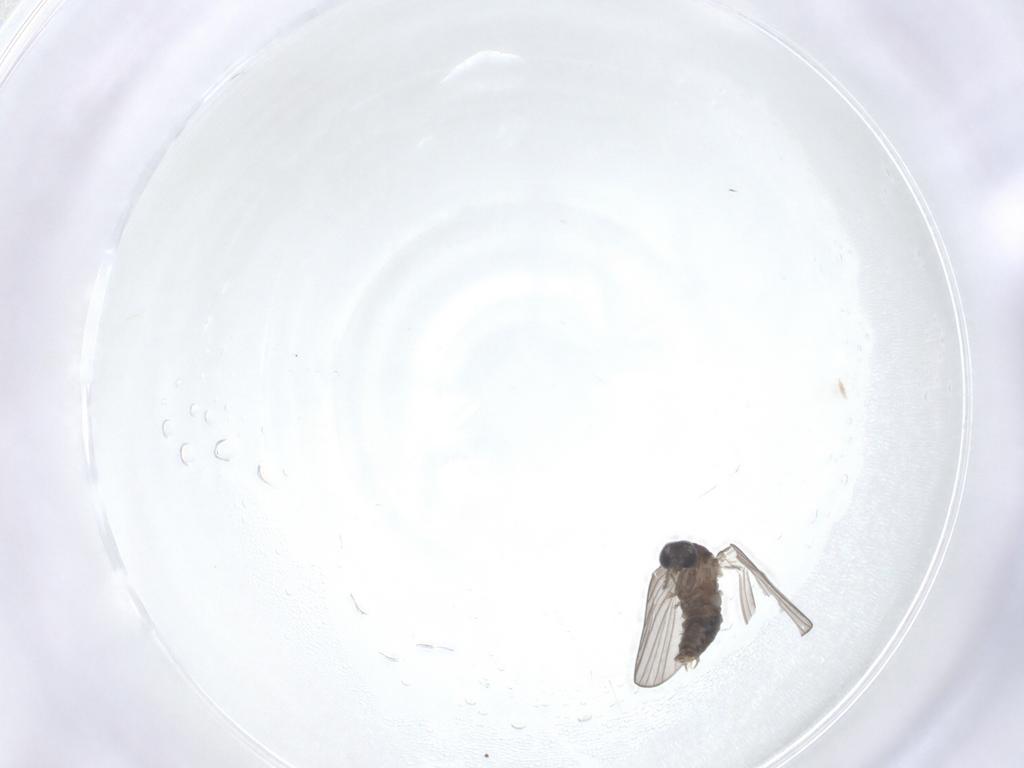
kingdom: Animalia
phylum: Arthropoda
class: Insecta
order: Diptera
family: Psychodidae
